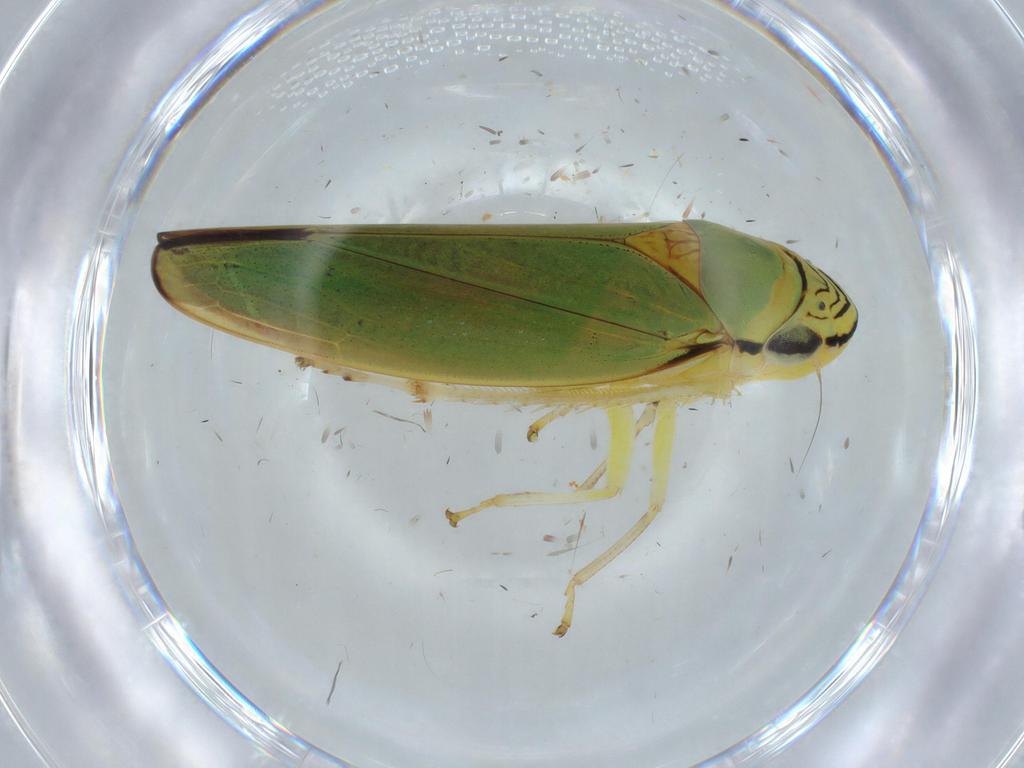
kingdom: Animalia
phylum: Arthropoda
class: Insecta
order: Hemiptera
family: Cicadellidae
